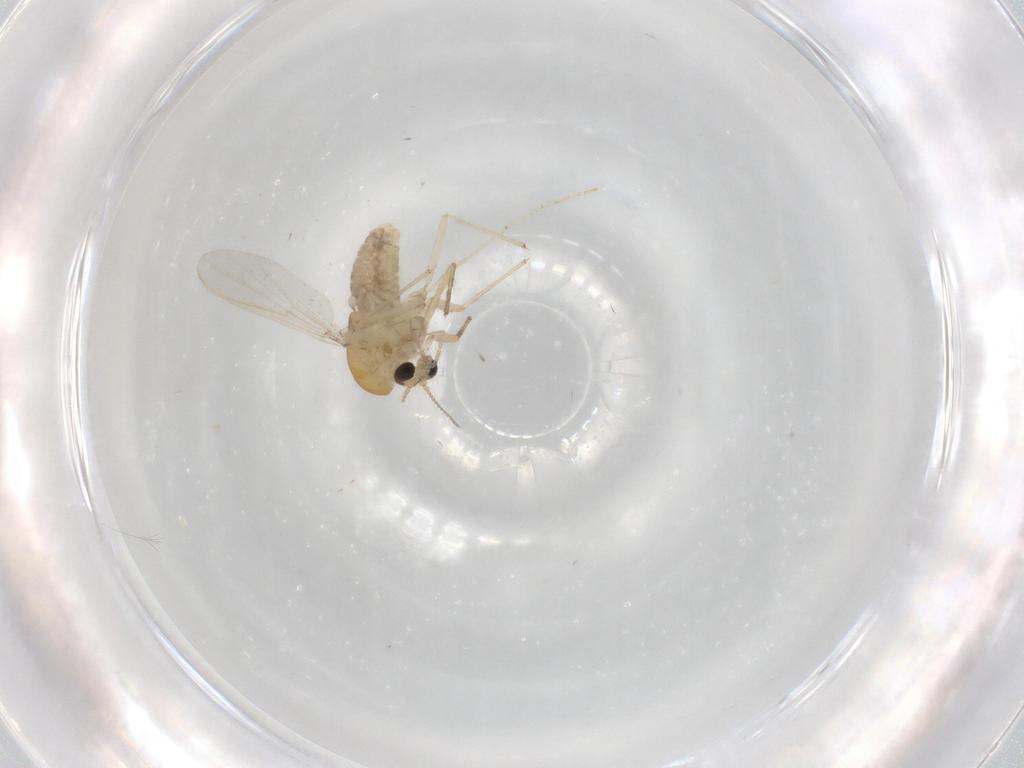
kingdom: Animalia
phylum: Arthropoda
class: Insecta
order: Diptera
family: Chironomidae
